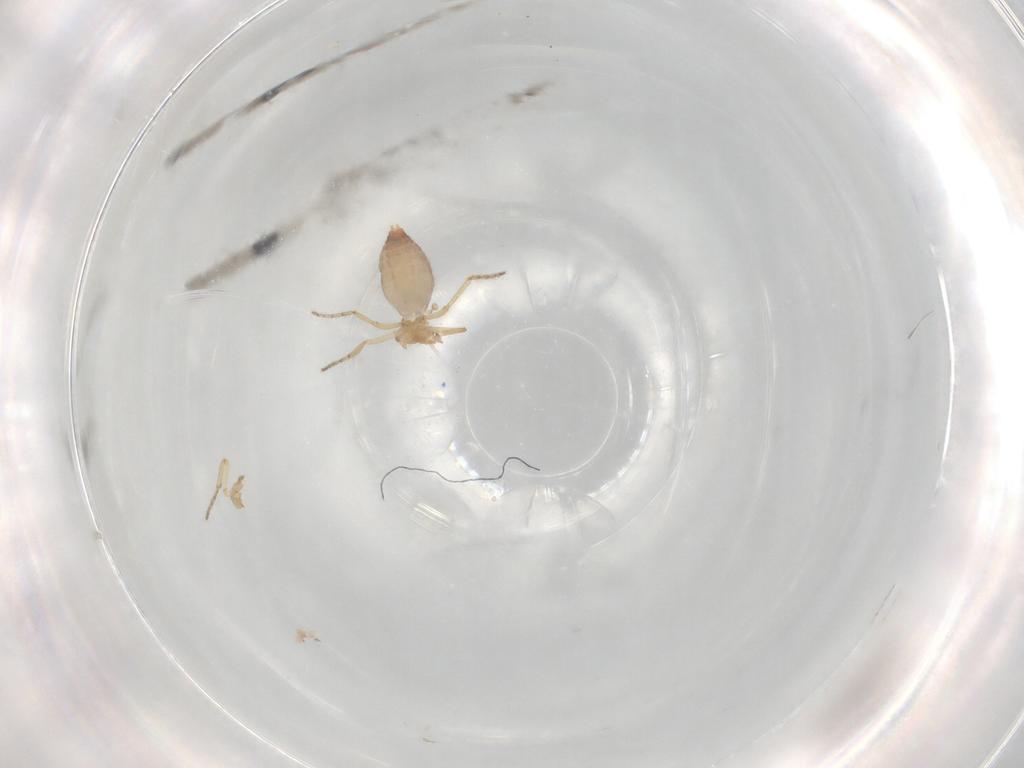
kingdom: Animalia
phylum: Arthropoda
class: Insecta
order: Diptera
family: Ceratopogonidae
